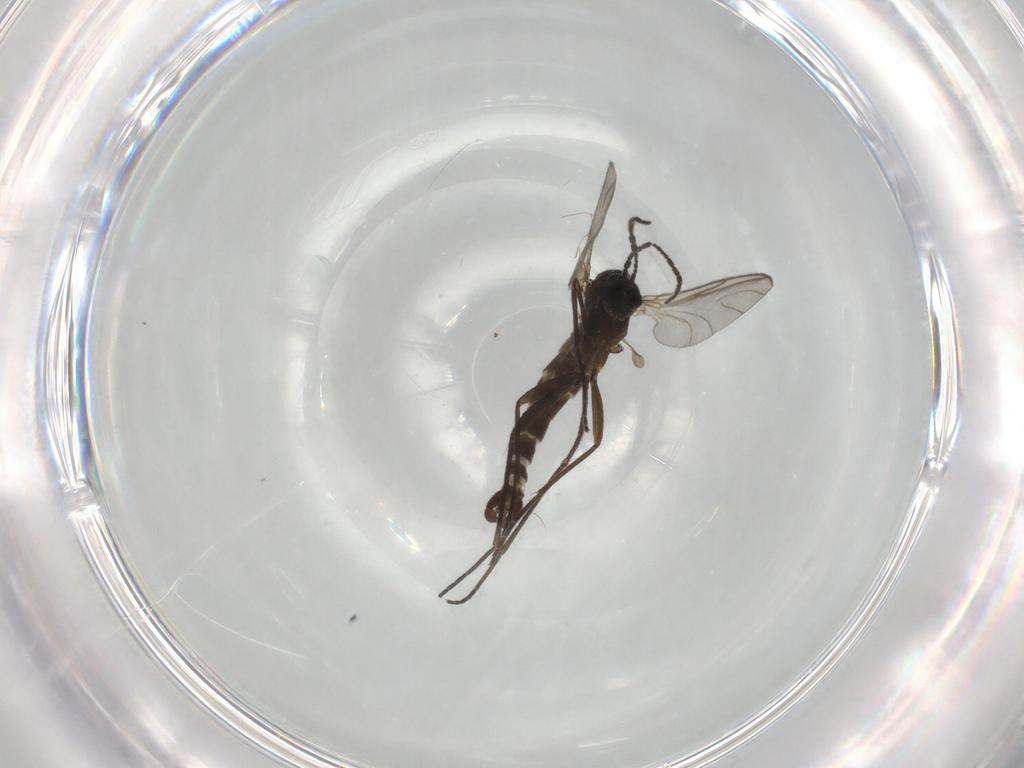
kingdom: Animalia
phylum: Arthropoda
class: Insecta
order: Diptera
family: Sciaridae
